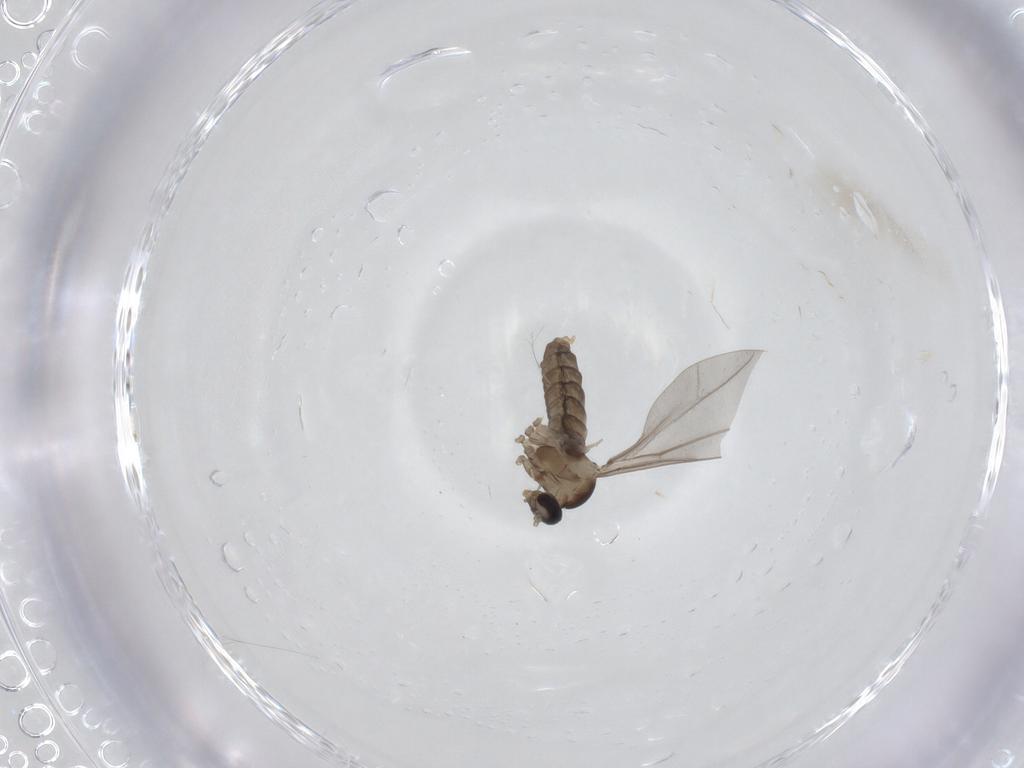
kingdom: Animalia
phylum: Arthropoda
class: Insecta
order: Diptera
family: Cecidomyiidae
